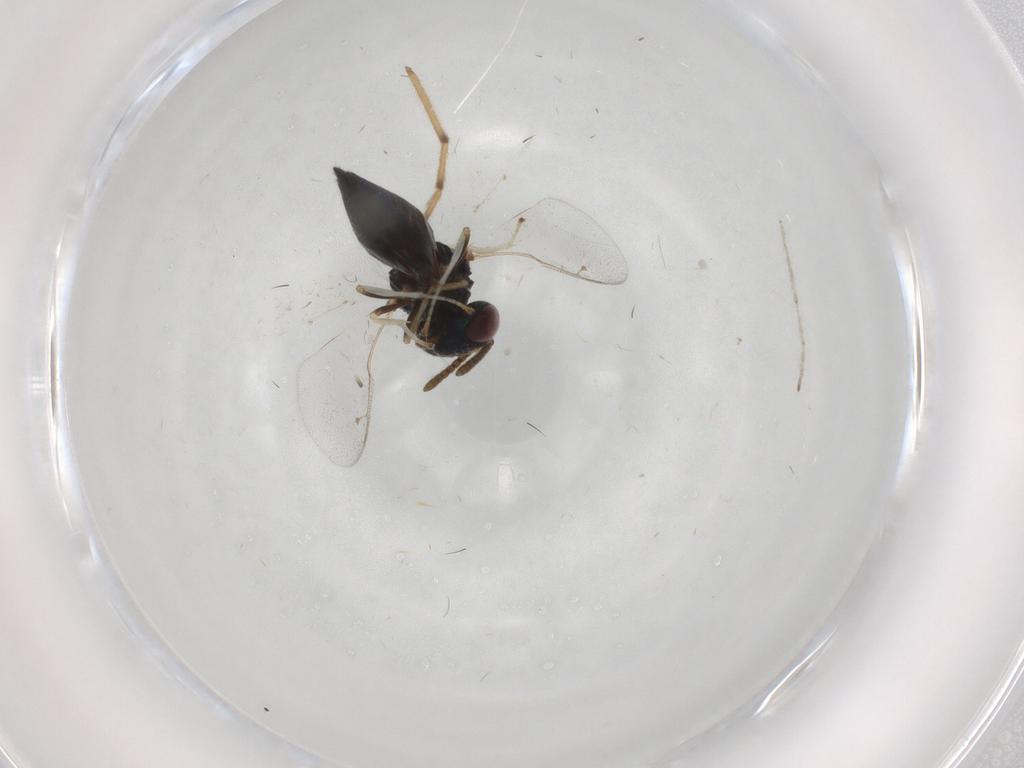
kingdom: Animalia
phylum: Arthropoda
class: Insecta
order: Hymenoptera
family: Pteromalidae
